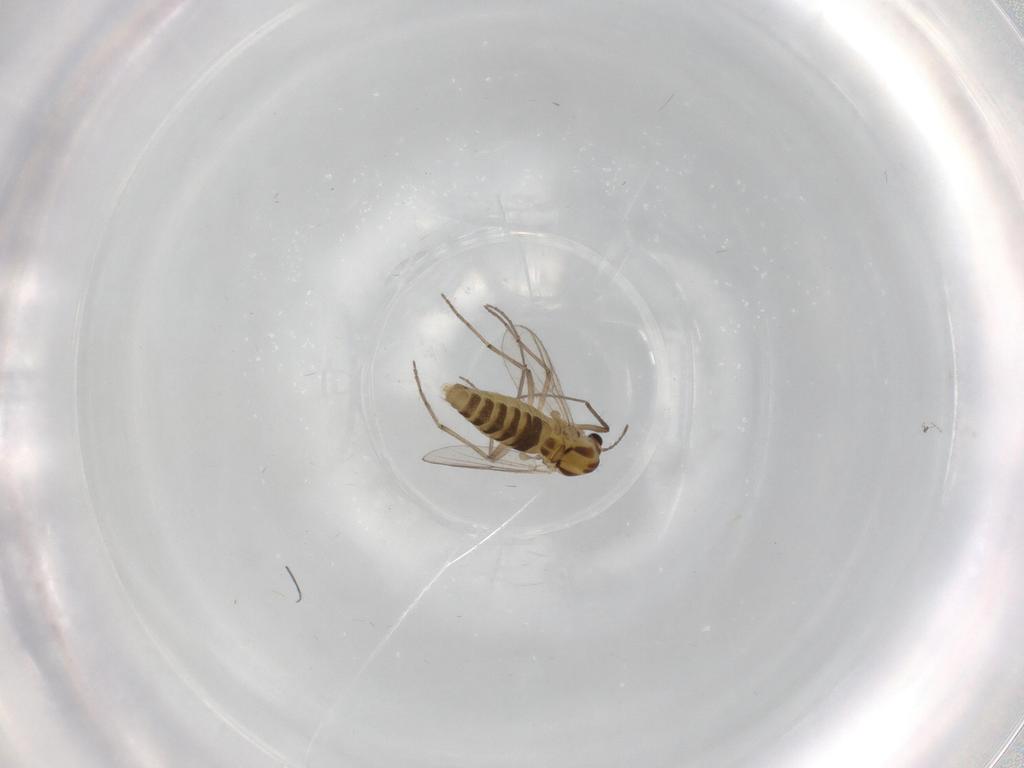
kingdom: Animalia
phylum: Arthropoda
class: Insecta
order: Diptera
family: Chironomidae
